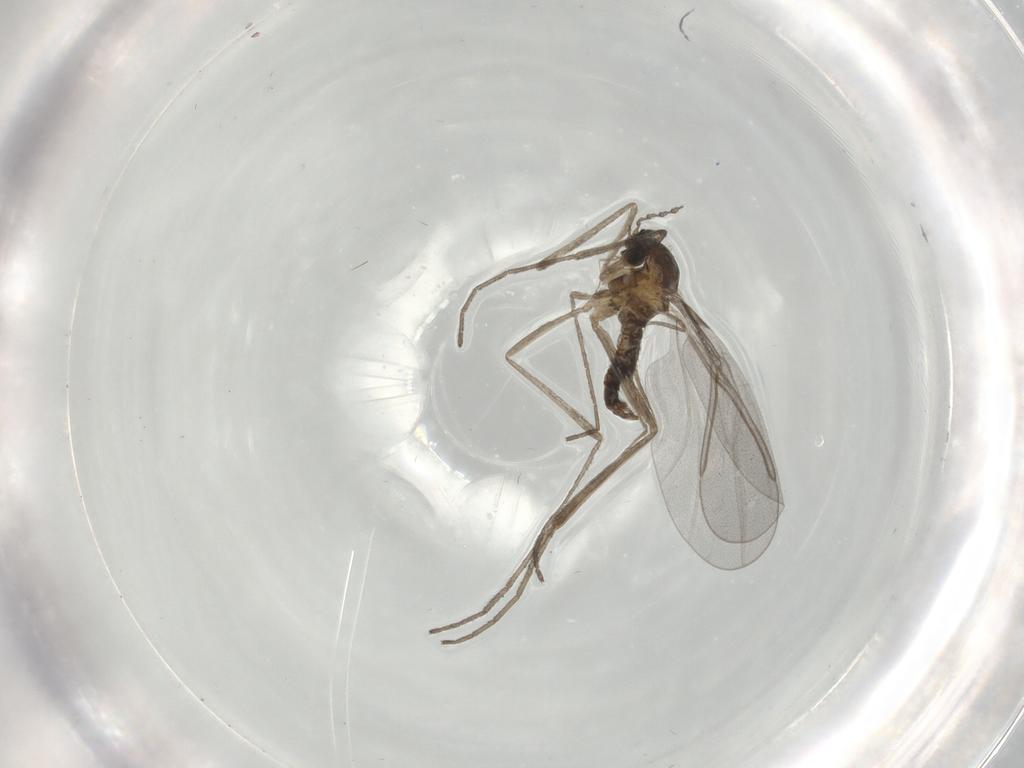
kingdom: Animalia
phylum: Arthropoda
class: Insecta
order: Diptera
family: Cecidomyiidae
